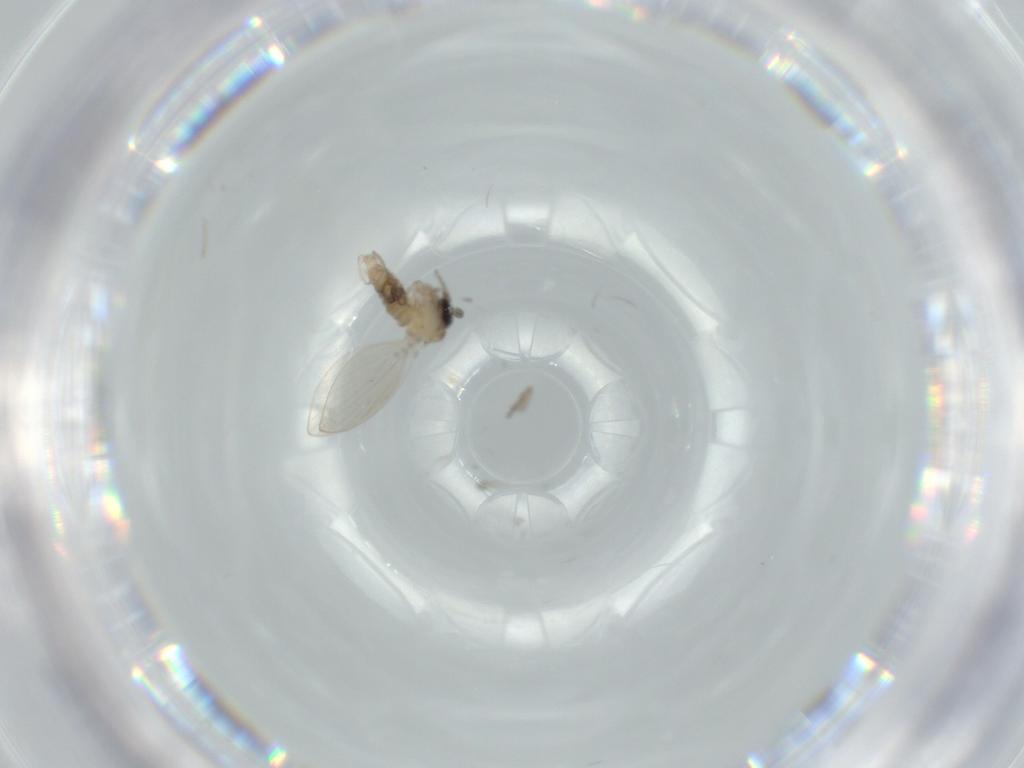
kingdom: Animalia
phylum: Arthropoda
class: Insecta
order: Diptera
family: Psychodidae
